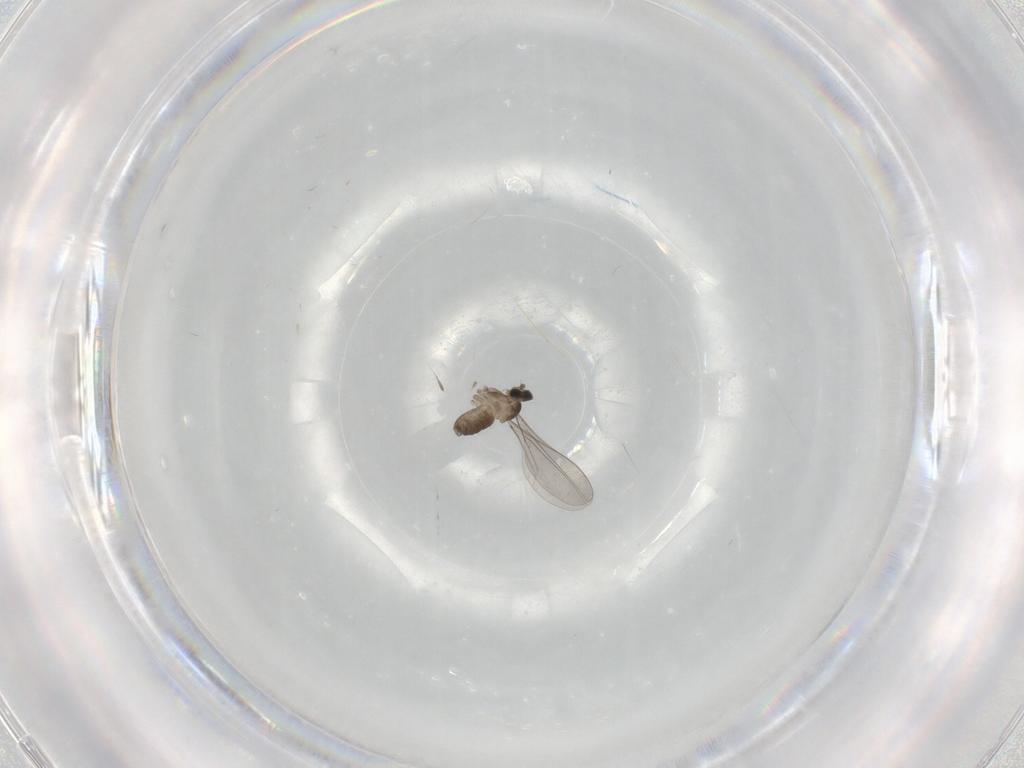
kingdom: Animalia
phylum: Arthropoda
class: Insecta
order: Diptera
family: Cecidomyiidae
